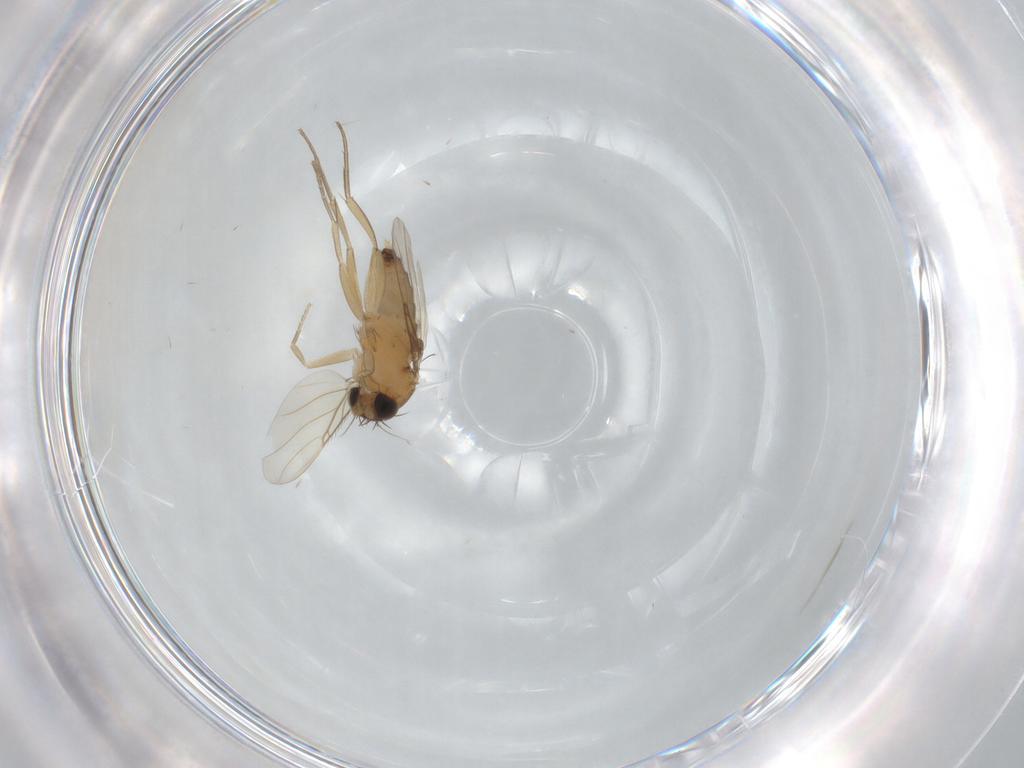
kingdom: Animalia
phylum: Arthropoda
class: Insecta
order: Diptera
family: Phoridae
